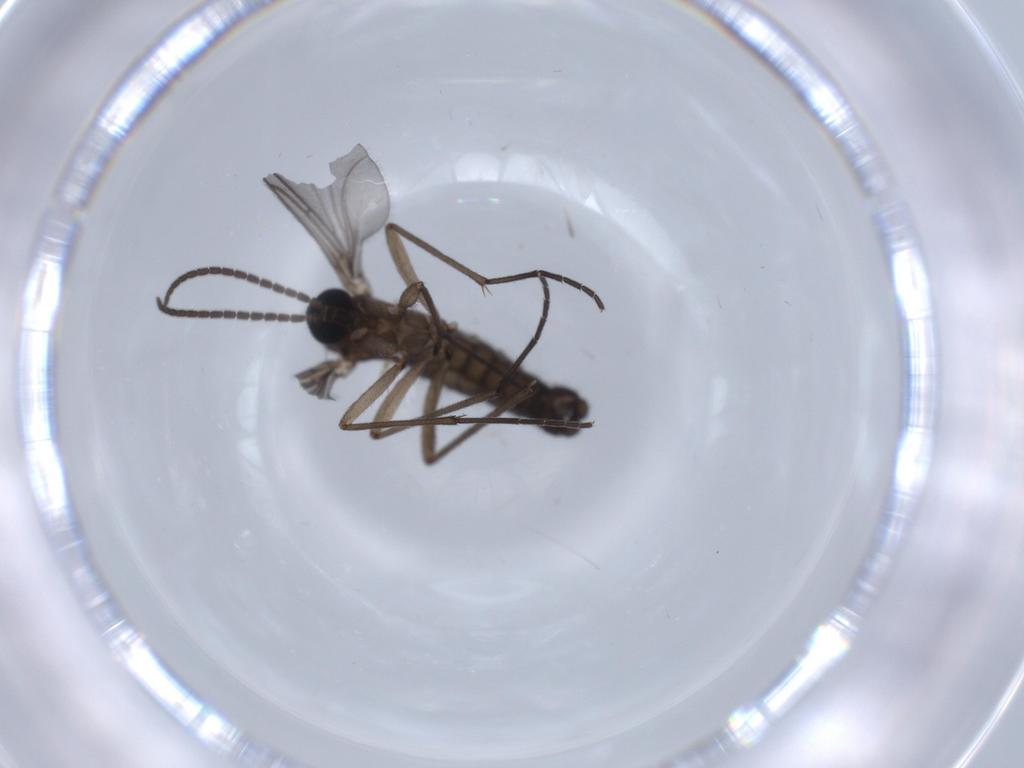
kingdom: Animalia
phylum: Arthropoda
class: Insecta
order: Diptera
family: Sciaridae
